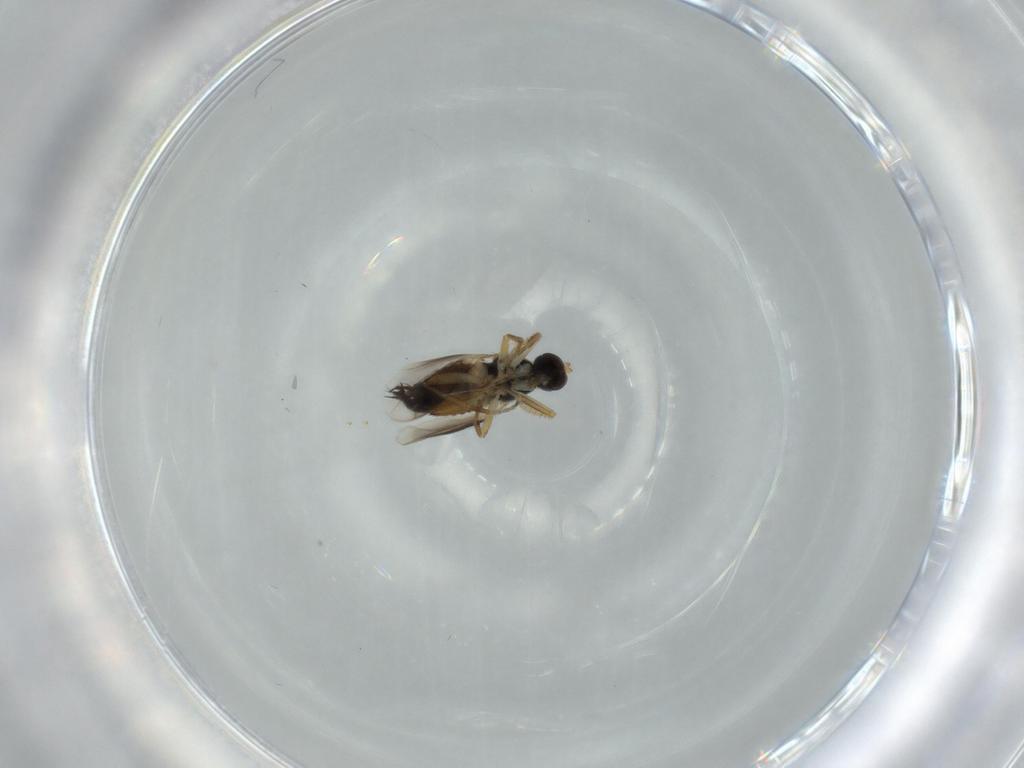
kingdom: Animalia
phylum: Arthropoda
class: Insecta
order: Diptera
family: Hybotidae
